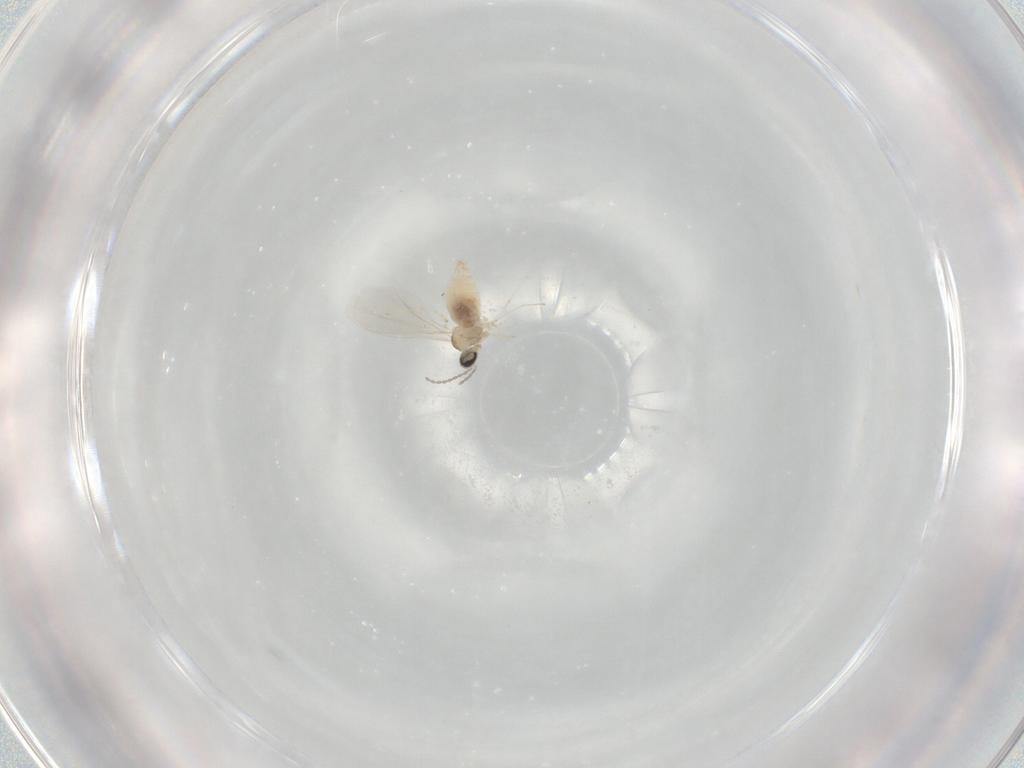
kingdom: Animalia
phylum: Arthropoda
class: Insecta
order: Diptera
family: Cecidomyiidae
